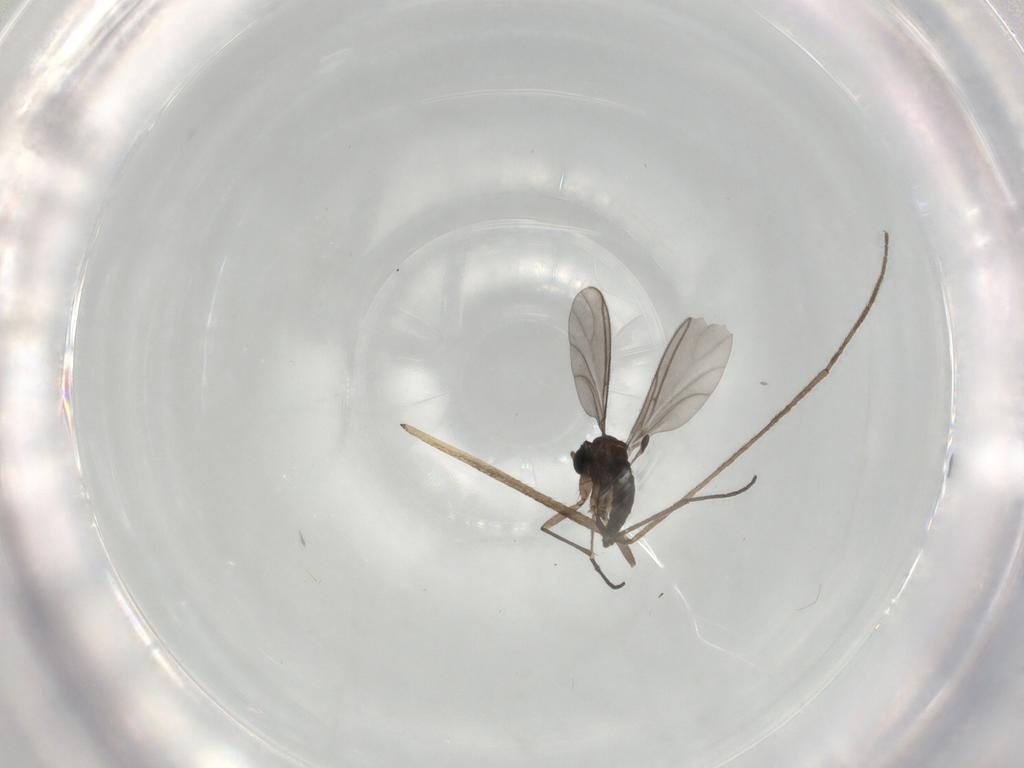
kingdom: Animalia
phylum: Arthropoda
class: Insecta
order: Diptera
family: Sciaridae
